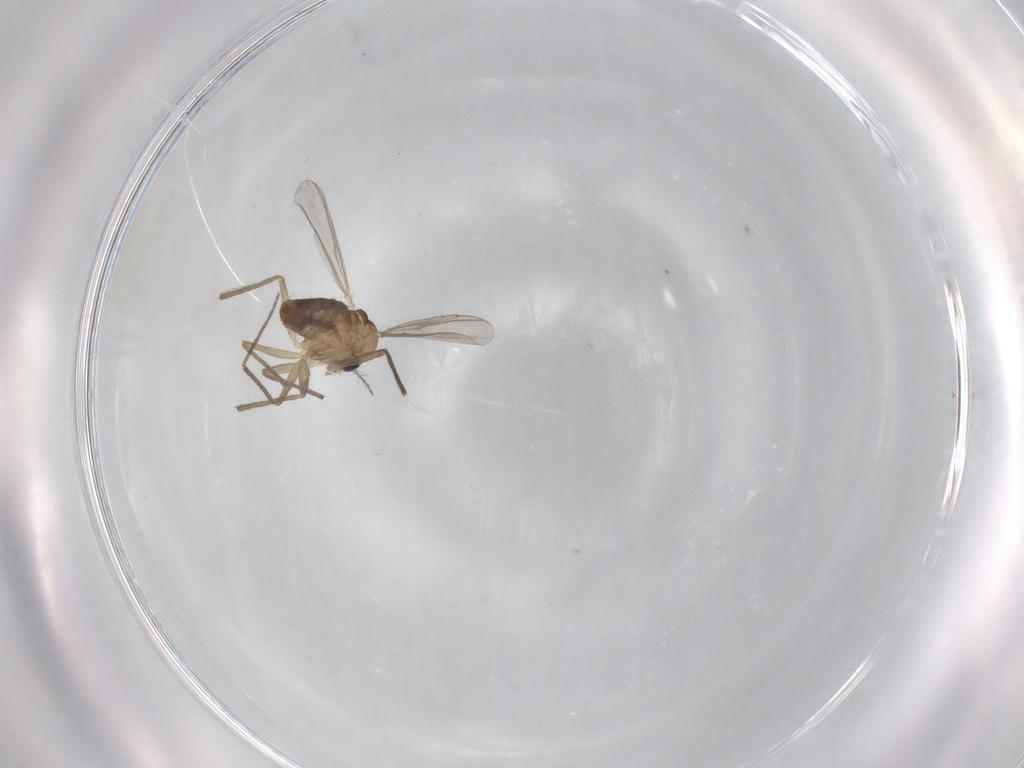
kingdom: Animalia
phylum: Arthropoda
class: Insecta
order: Diptera
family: Chironomidae
